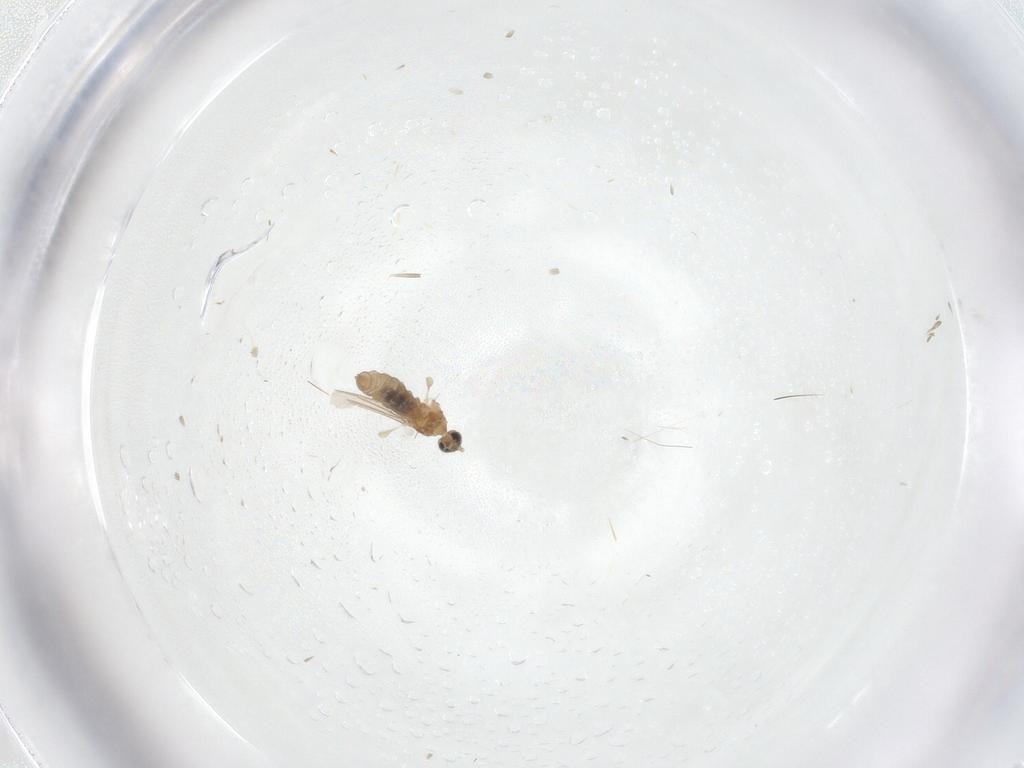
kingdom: Animalia
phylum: Arthropoda
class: Insecta
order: Diptera
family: Cecidomyiidae
